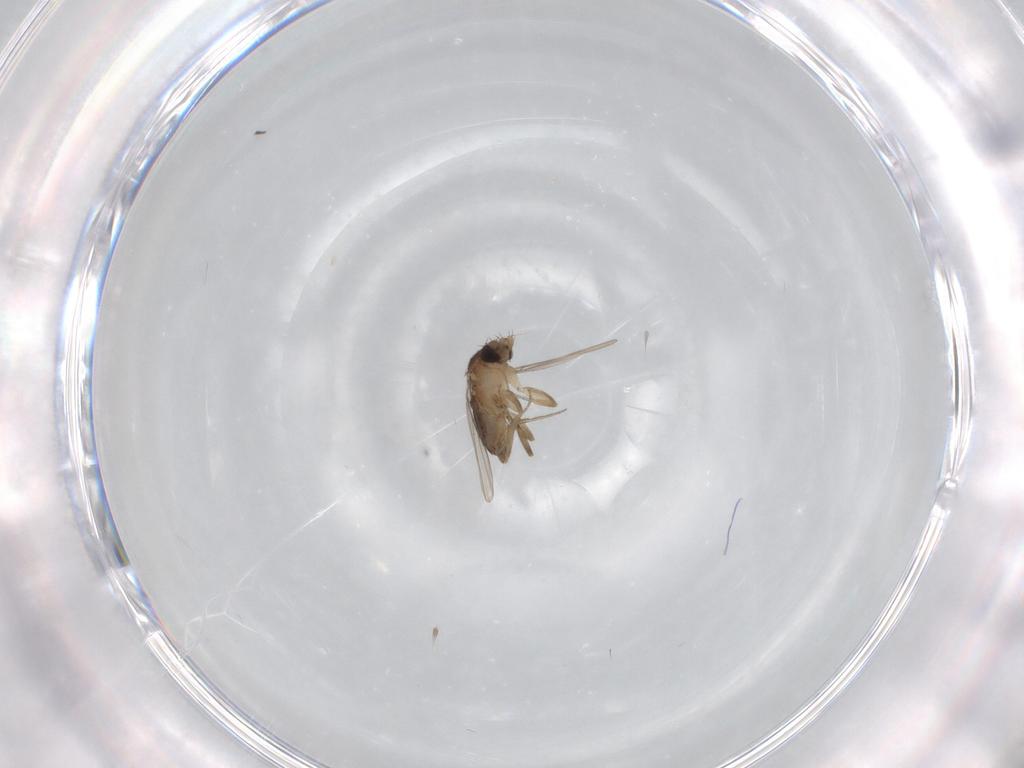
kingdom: Animalia
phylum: Arthropoda
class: Insecta
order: Diptera
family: Phoridae
